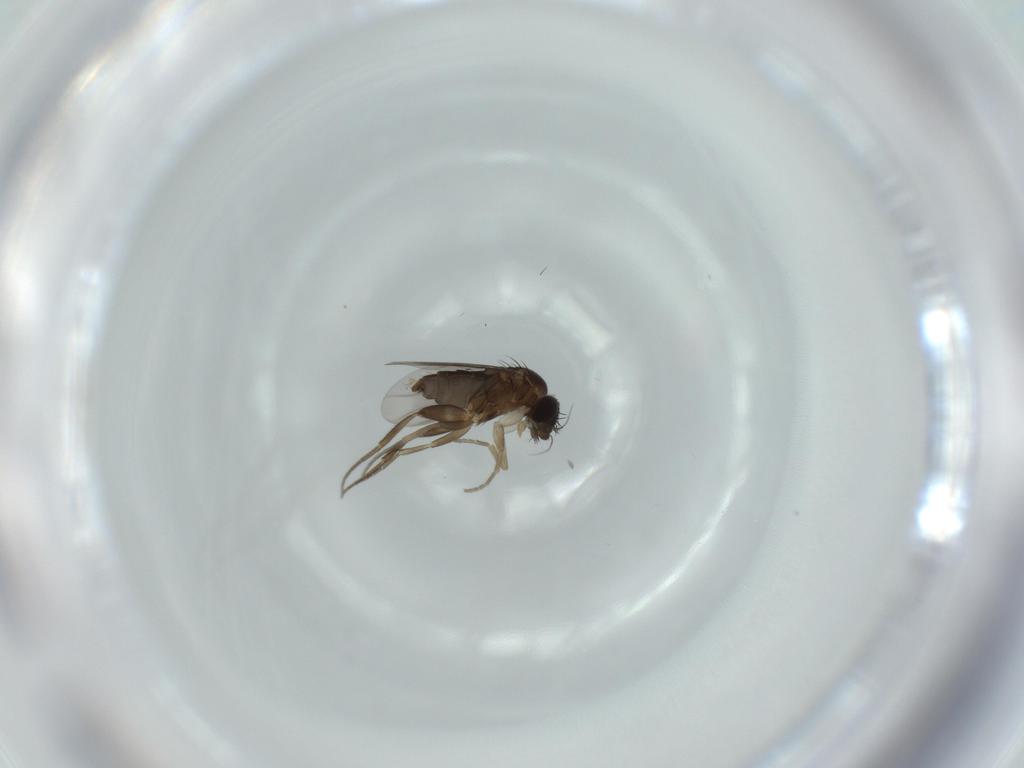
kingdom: Animalia
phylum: Arthropoda
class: Insecta
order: Diptera
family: Phoridae
